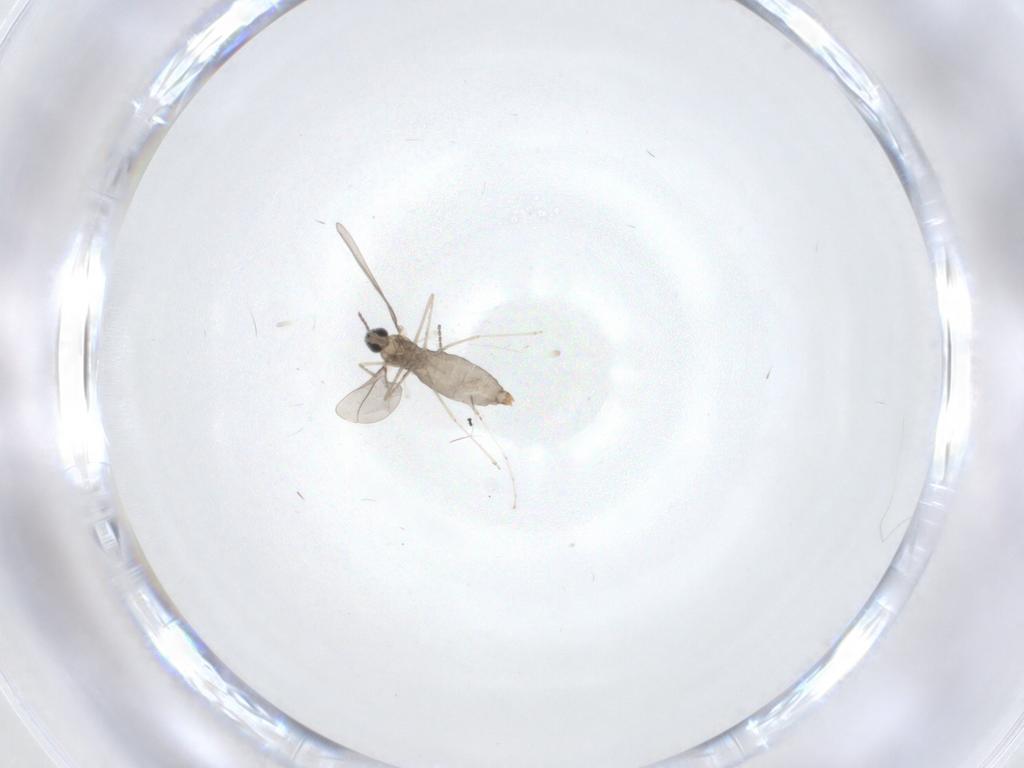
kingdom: Animalia
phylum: Arthropoda
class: Insecta
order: Diptera
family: Cecidomyiidae
